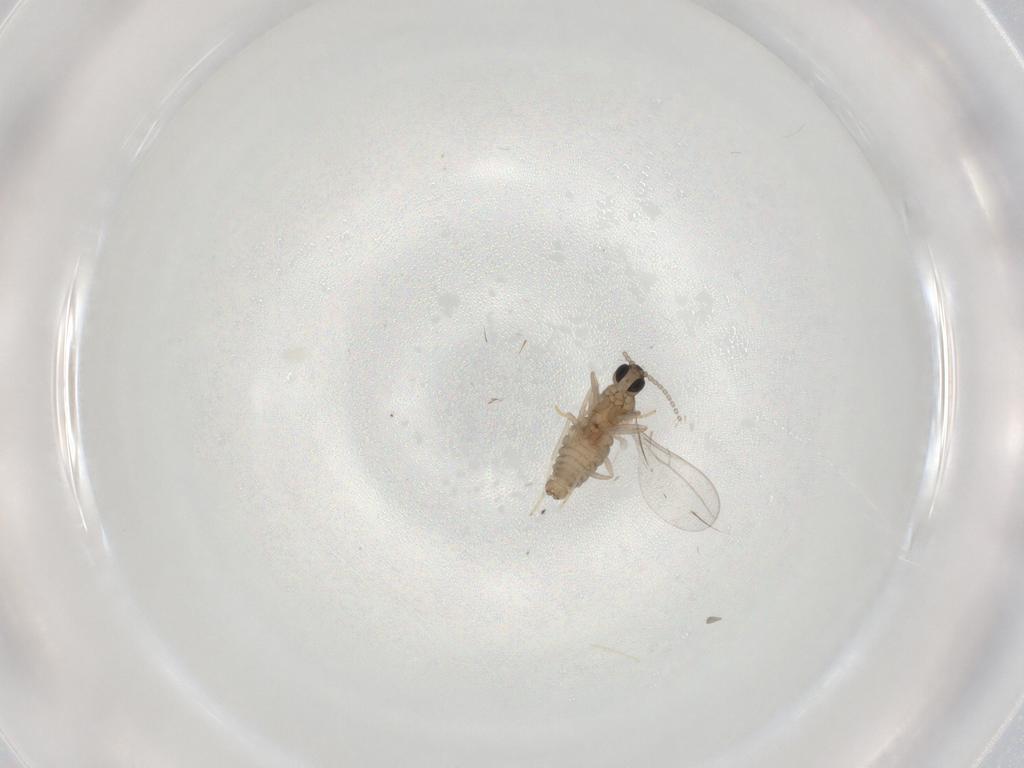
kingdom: Animalia
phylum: Arthropoda
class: Insecta
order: Diptera
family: Cecidomyiidae
